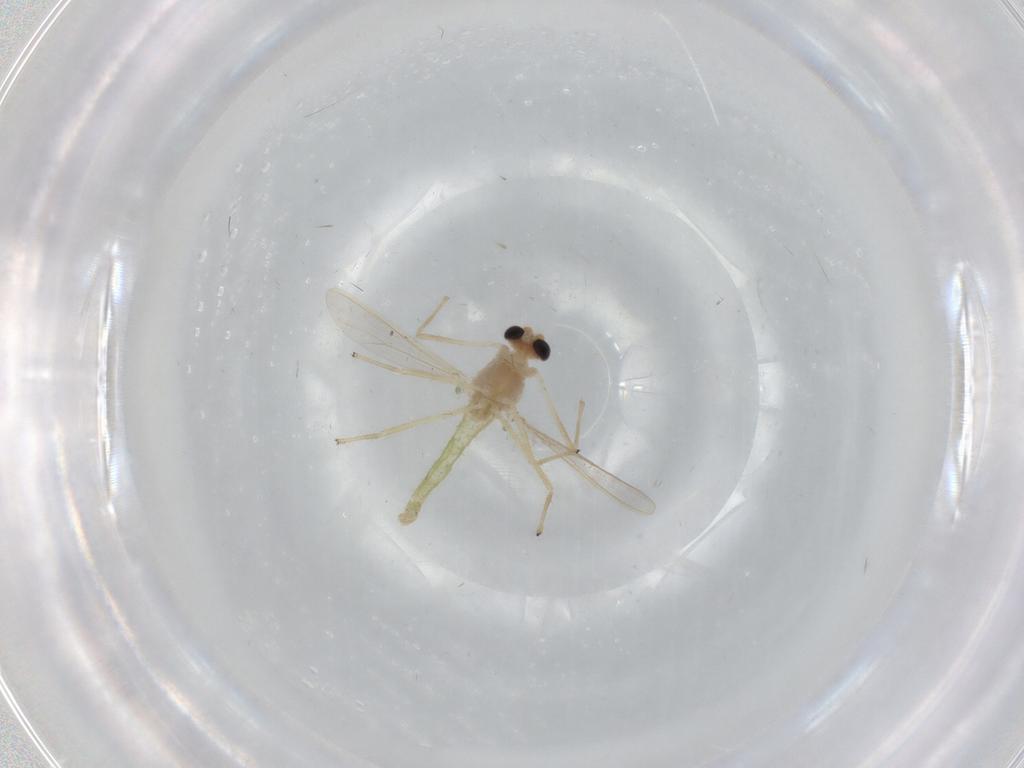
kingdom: Animalia
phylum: Arthropoda
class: Insecta
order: Diptera
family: Chironomidae
